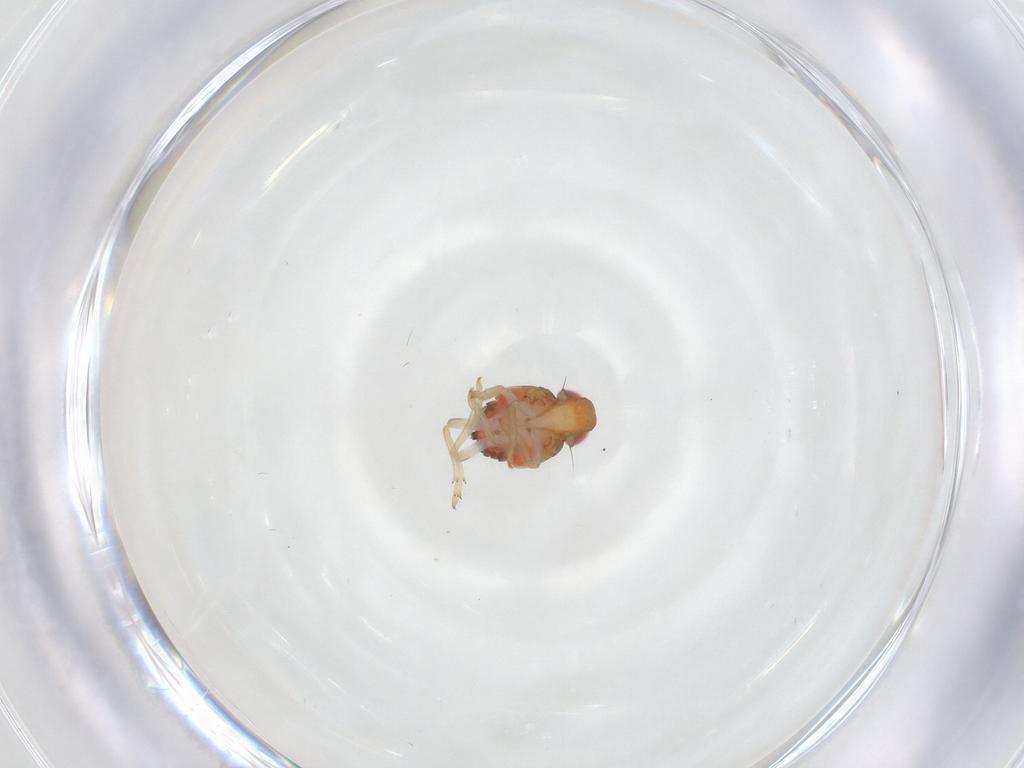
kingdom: Animalia
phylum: Arthropoda
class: Insecta
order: Hemiptera
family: Issidae
